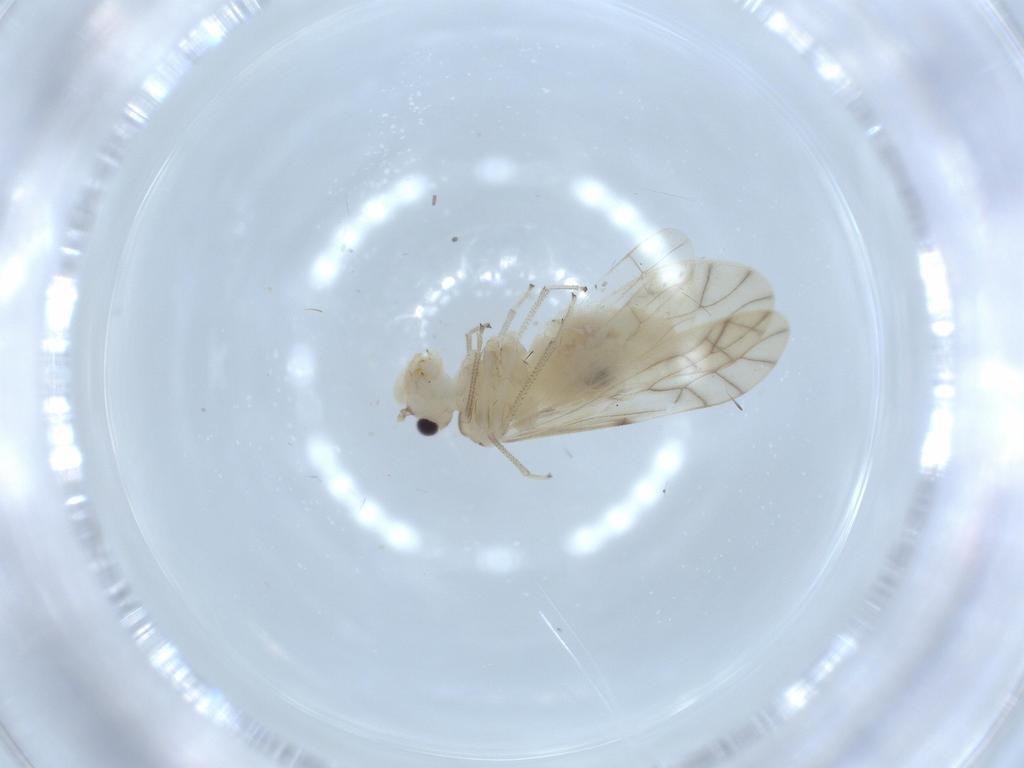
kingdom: Animalia
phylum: Arthropoda
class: Insecta
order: Psocodea
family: Caeciliusidae
